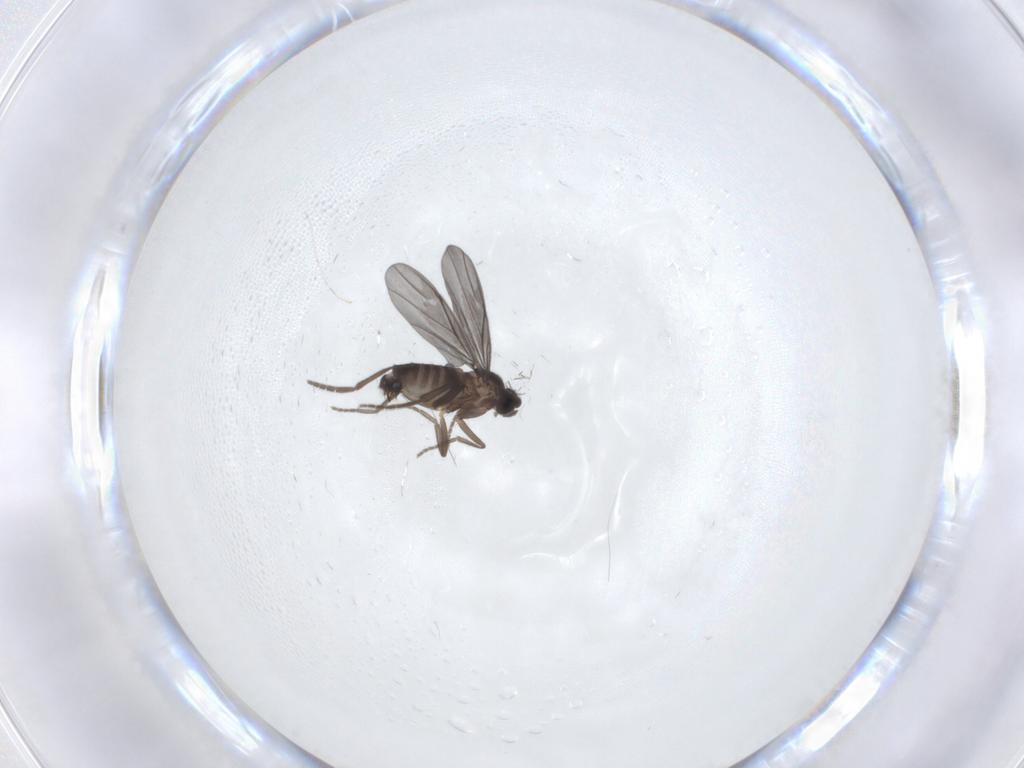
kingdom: Animalia
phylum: Arthropoda
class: Insecta
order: Diptera
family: Phoridae
